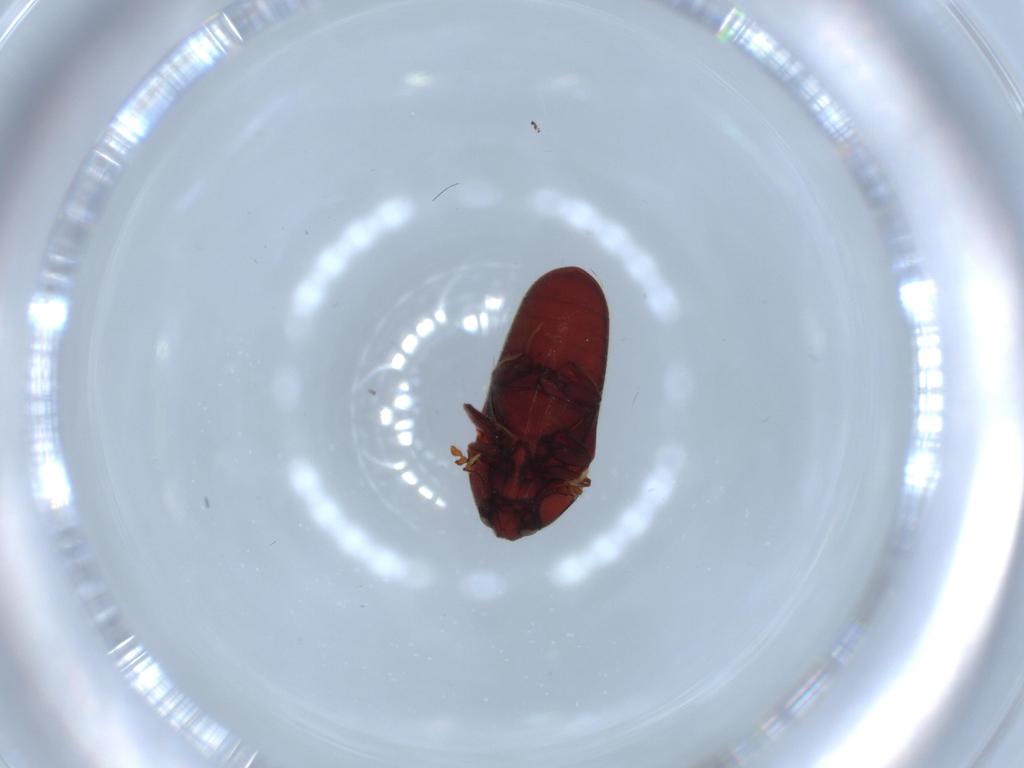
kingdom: Animalia
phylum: Arthropoda
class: Insecta
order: Coleoptera
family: Throscidae
